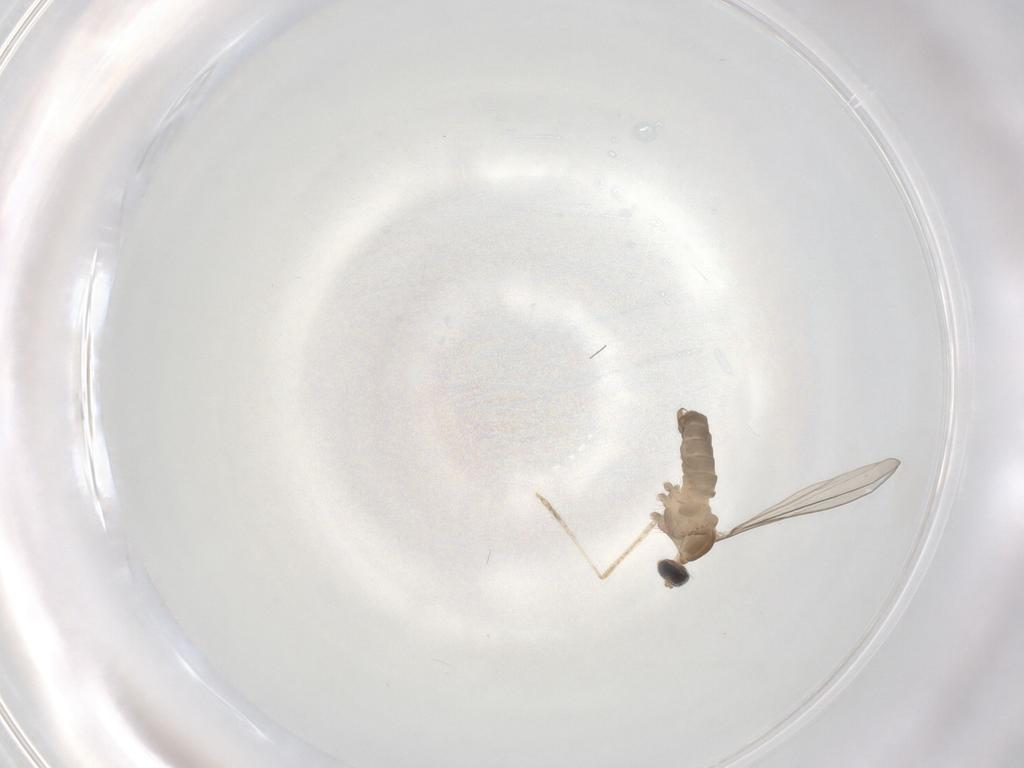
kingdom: Animalia
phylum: Arthropoda
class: Insecta
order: Diptera
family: Cecidomyiidae
